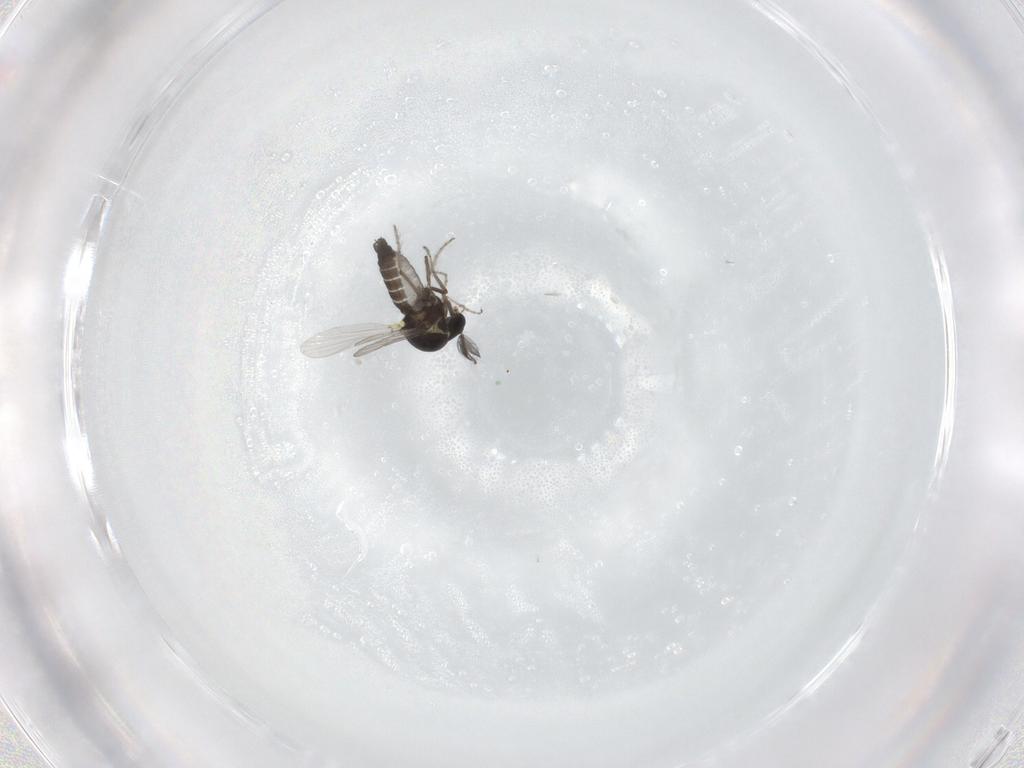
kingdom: Animalia
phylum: Arthropoda
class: Insecta
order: Diptera
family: Ceratopogonidae
